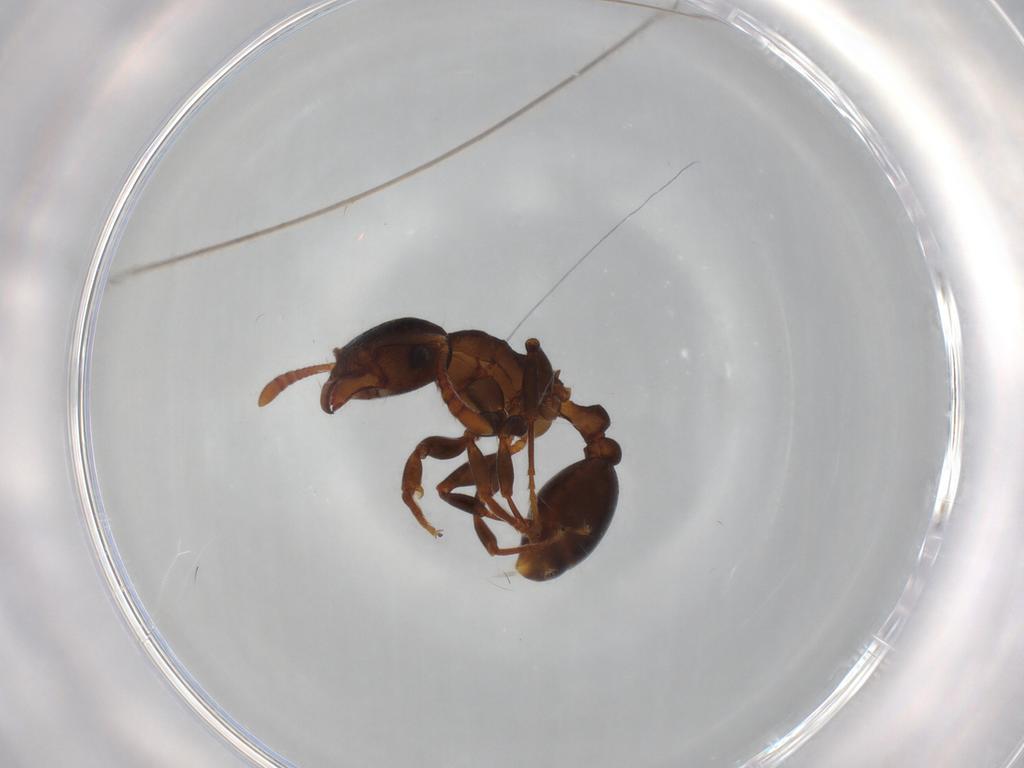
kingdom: Animalia
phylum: Arthropoda
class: Insecta
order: Hymenoptera
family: Formicidae
